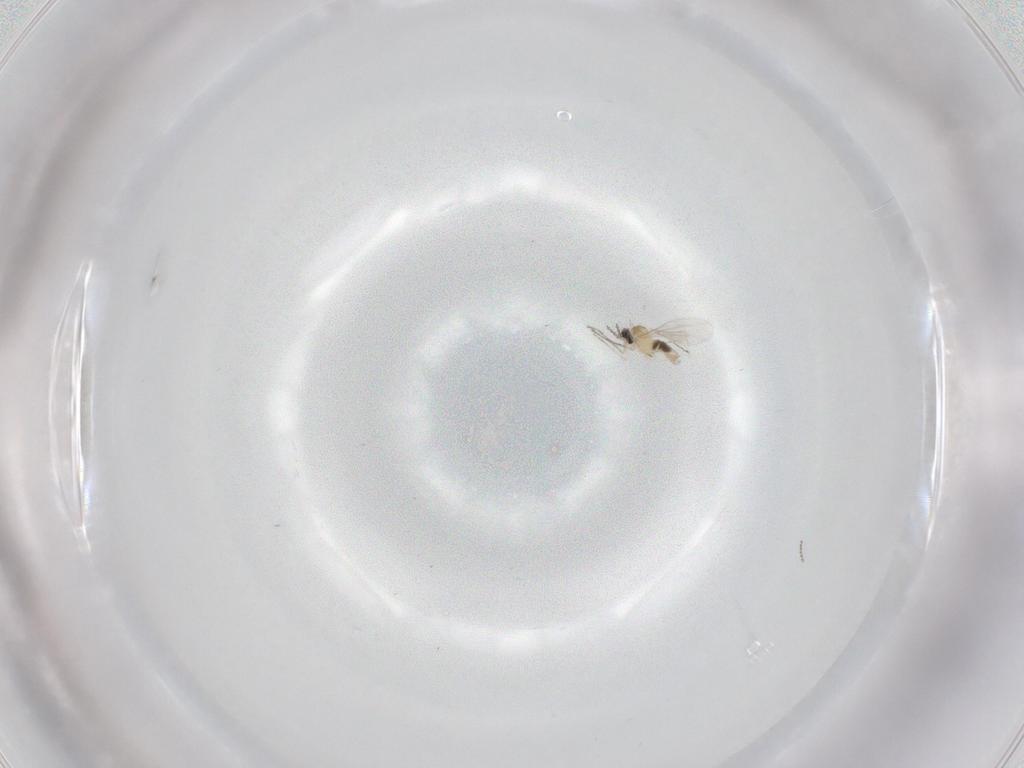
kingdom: Animalia
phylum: Arthropoda
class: Insecta
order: Diptera
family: Cecidomyiidae
